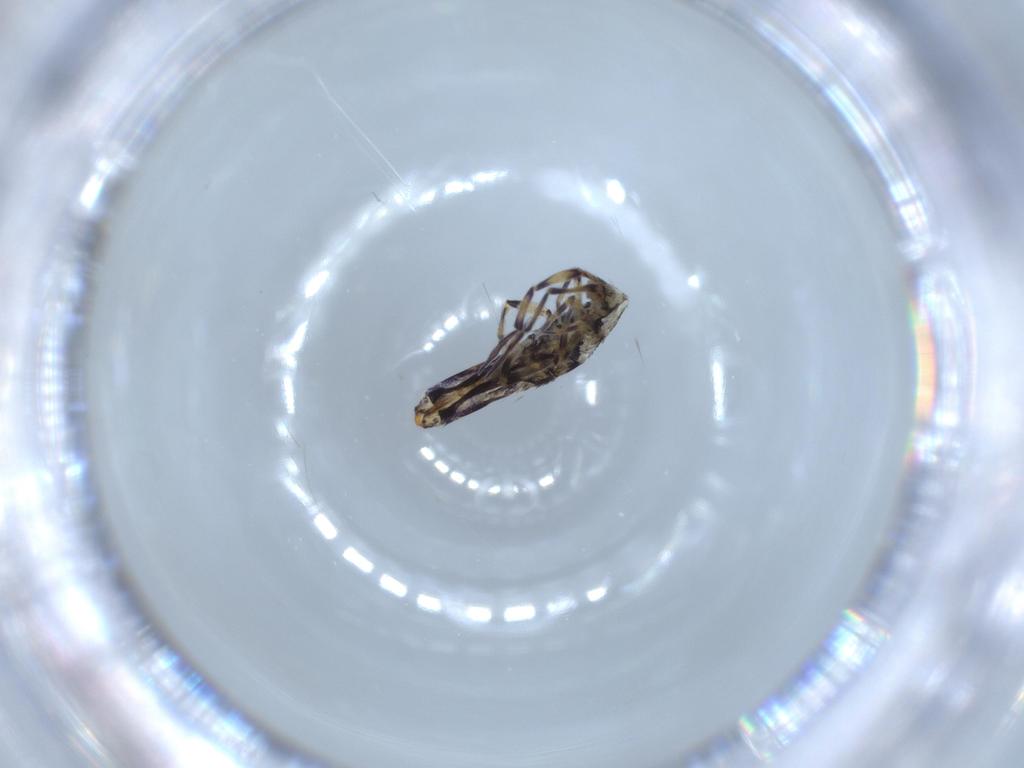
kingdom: Animalia
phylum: Arthropoda
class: Collembola
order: Entomobryomorpha
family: Entomobryidae
